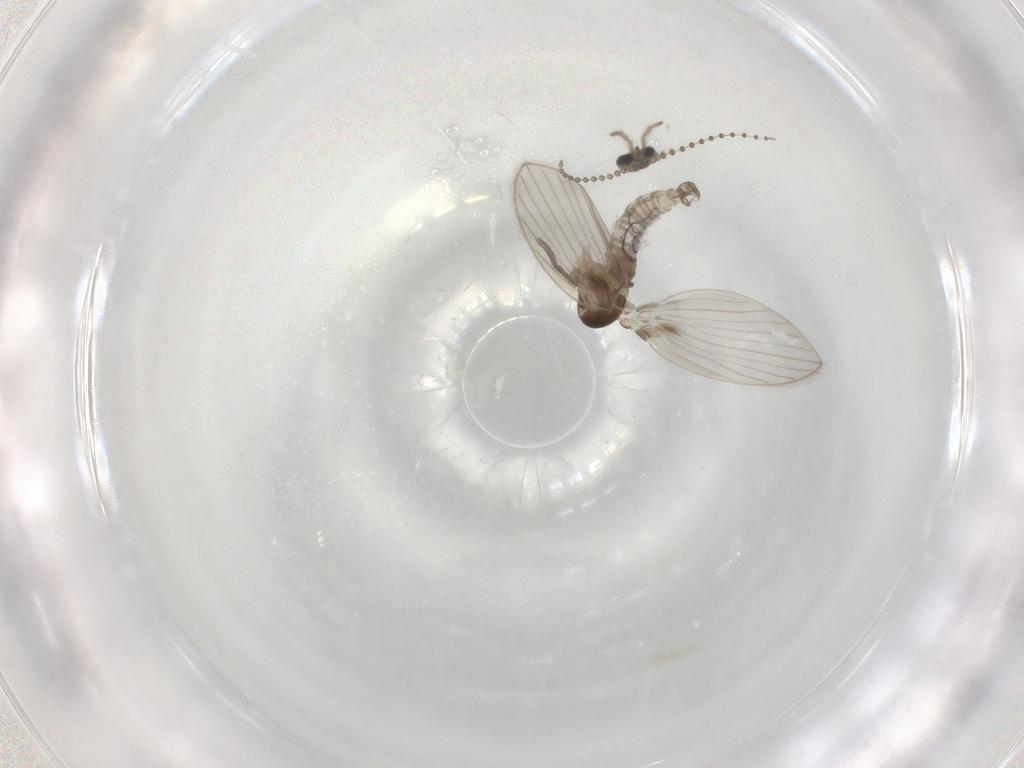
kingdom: Animalia
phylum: Arthropoda
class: Insecta
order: Diptera
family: Psychodidae
